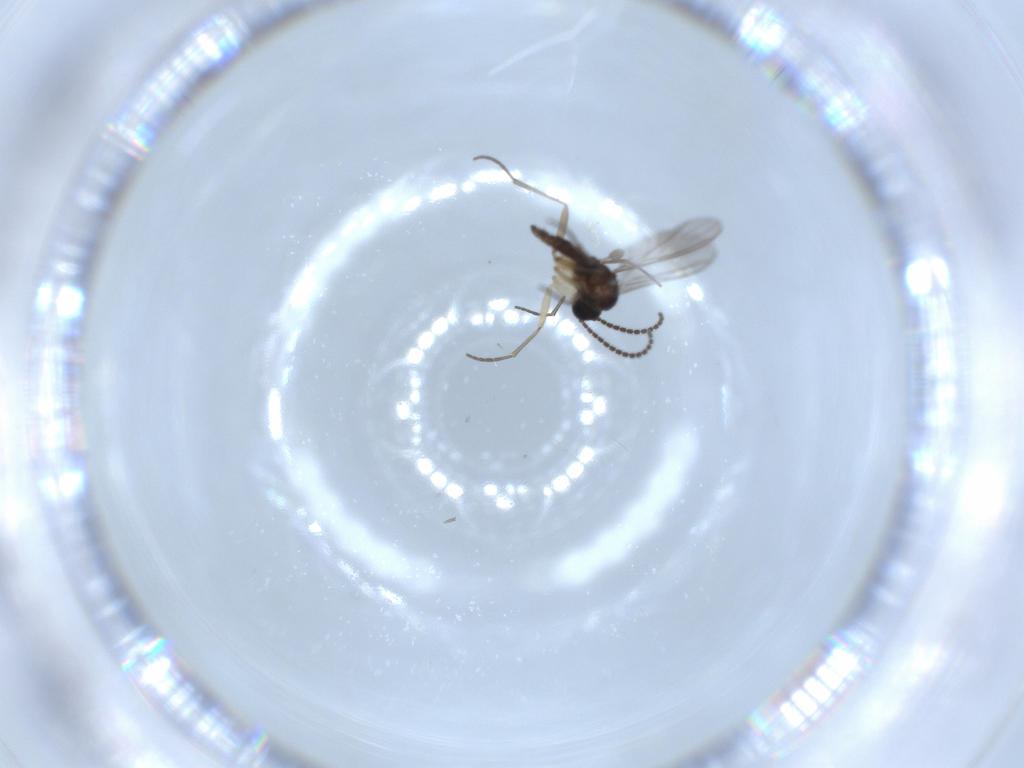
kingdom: Animalia
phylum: Arthropoda
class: Insecta
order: Diptera
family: Sciaridae
